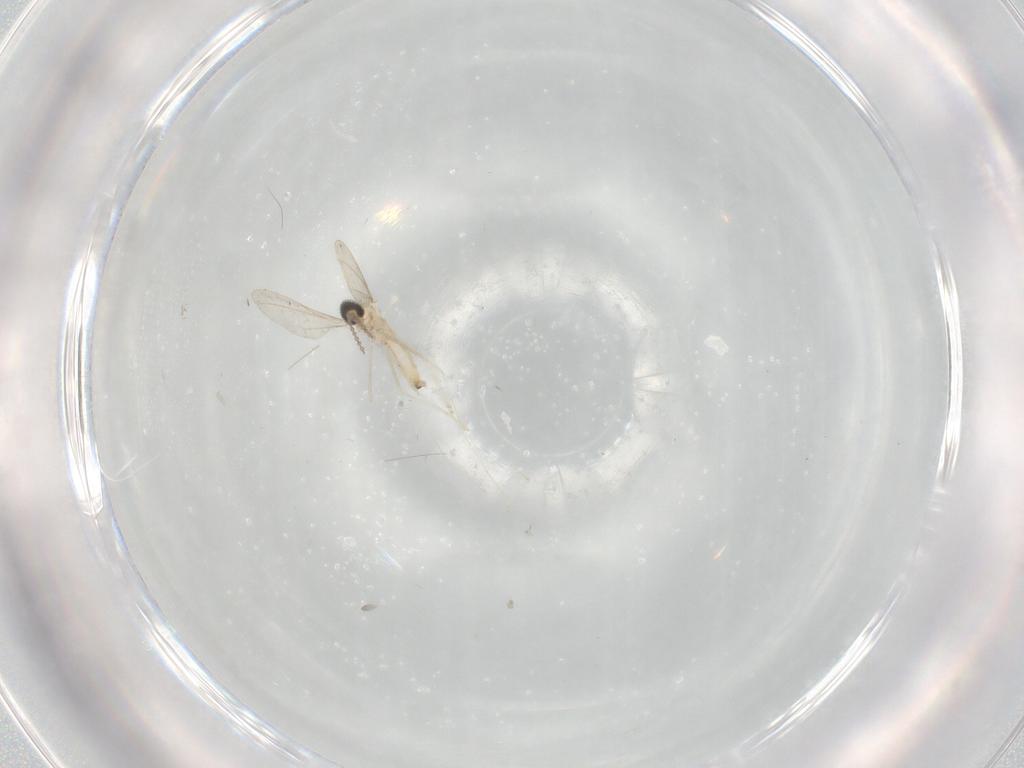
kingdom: Animalia
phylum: Arthropoda
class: Insecta
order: Diptera
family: Cecidomyiidae
